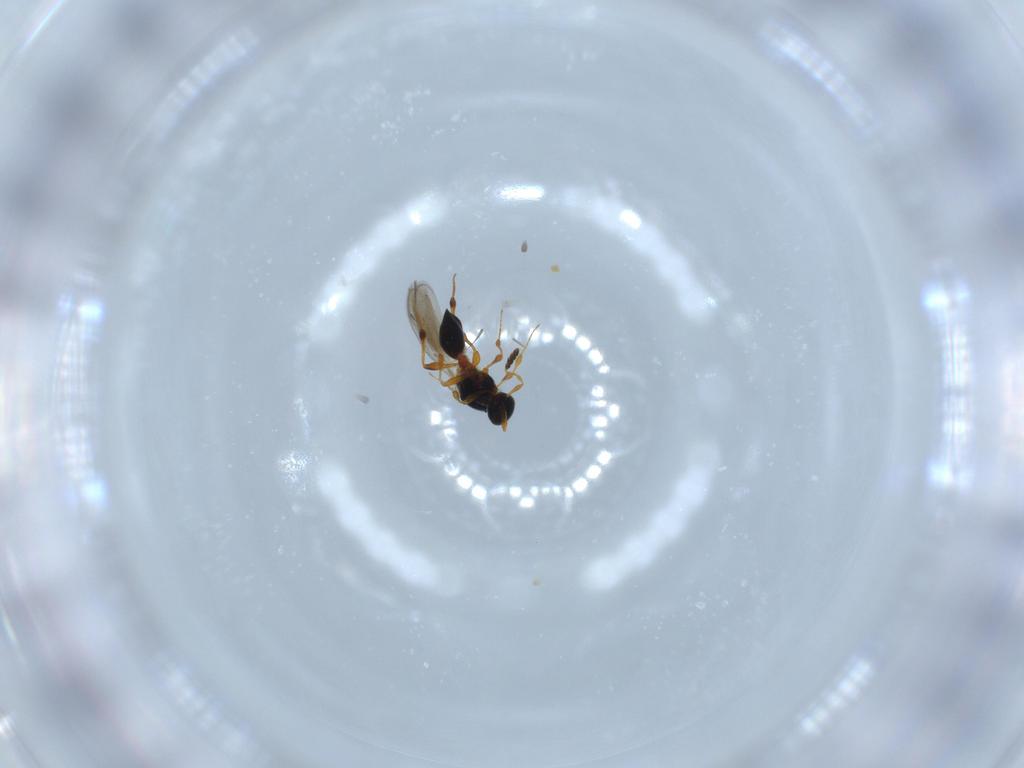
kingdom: Animalia
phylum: Arthropoda
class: Insecta
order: Hymenoptera
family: Platygastridae
